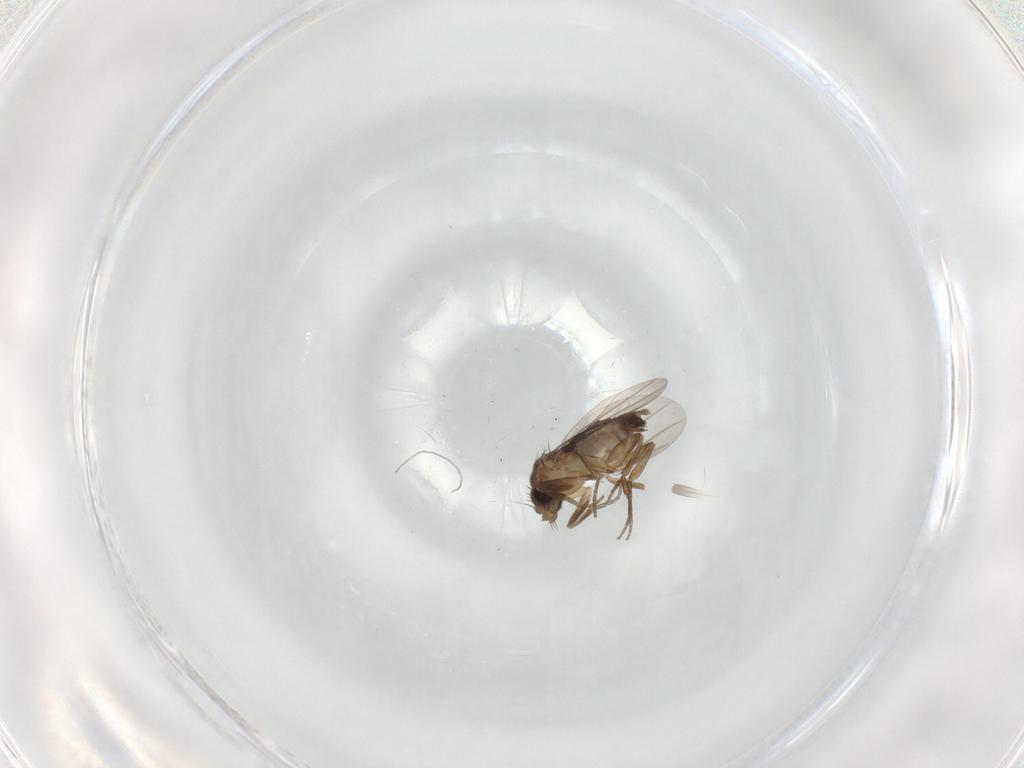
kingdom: Animalia
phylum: Arthropoda
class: Insecta
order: Diptera
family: Phoridae
